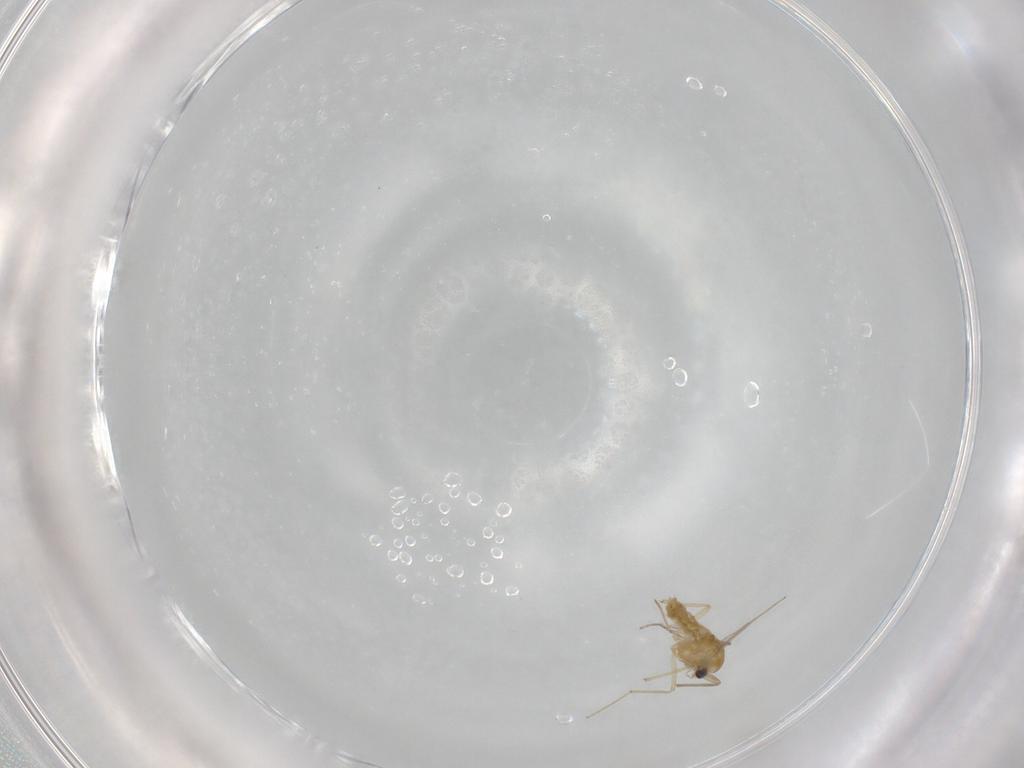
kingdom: Animalia
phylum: Arthropoda
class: Insecta
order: Diptera
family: Chironomidae
